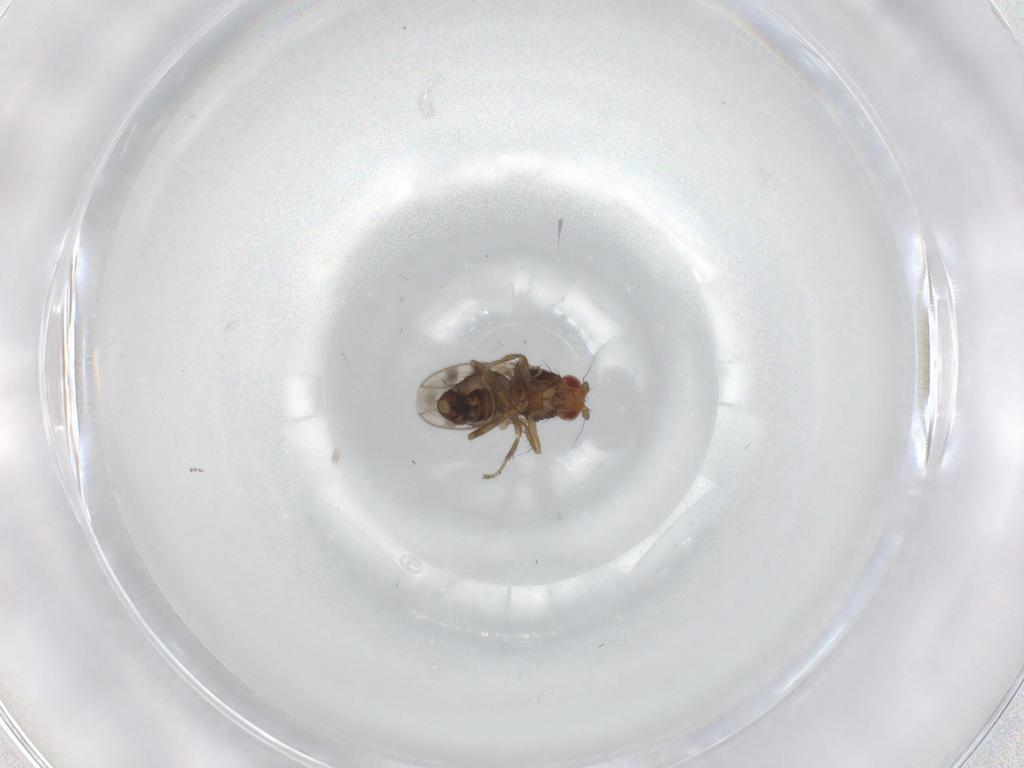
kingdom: Animalia
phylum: Arthropoda
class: Insecta
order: Diptera
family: Sphaeroceridae
